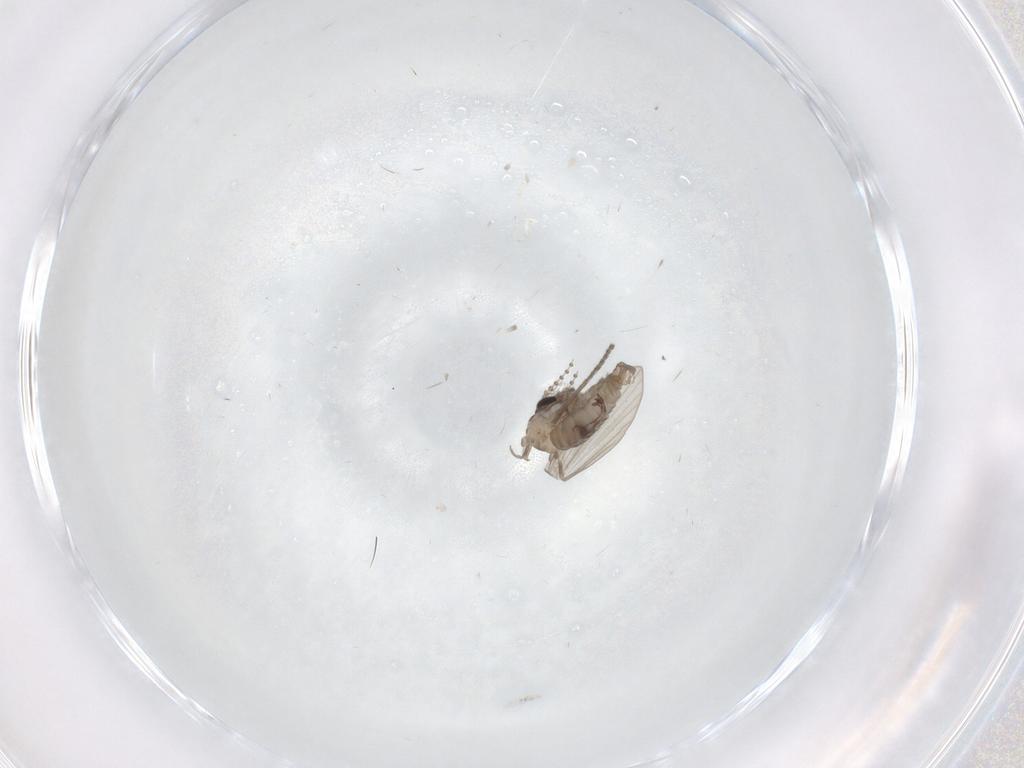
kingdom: Animalia
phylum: Arthropoda
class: Insecta
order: Diptera
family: Psychodidae
